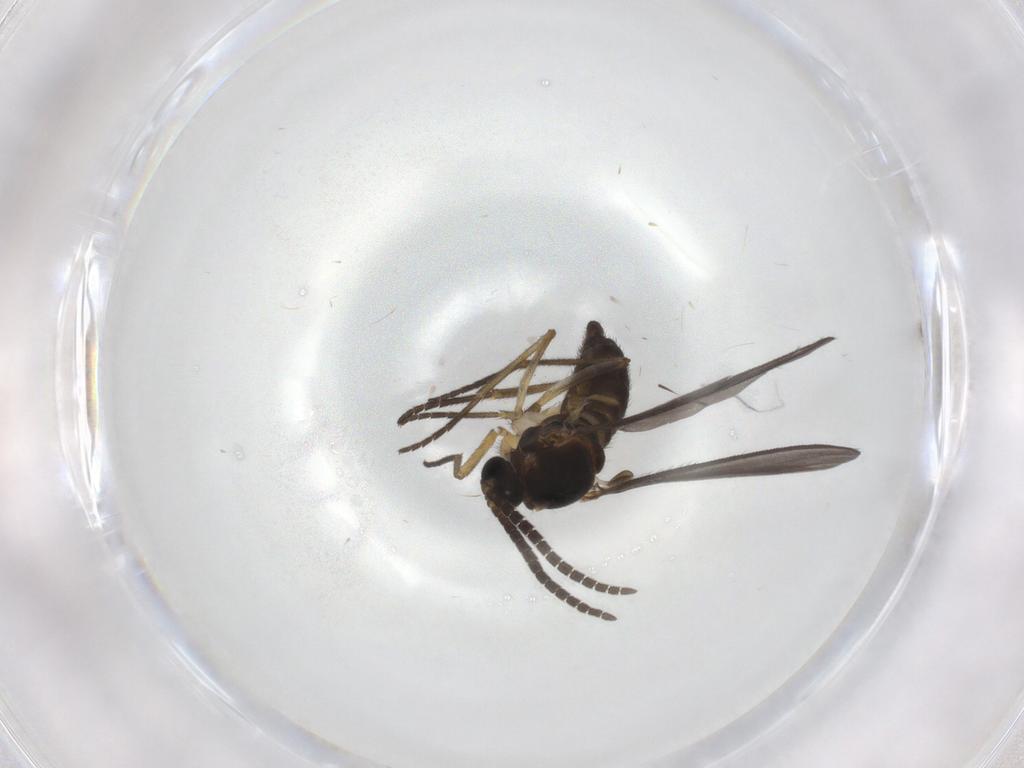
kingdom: Animalia
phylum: Arthropoda
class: Insecta
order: Diptera
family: Sciaridae
